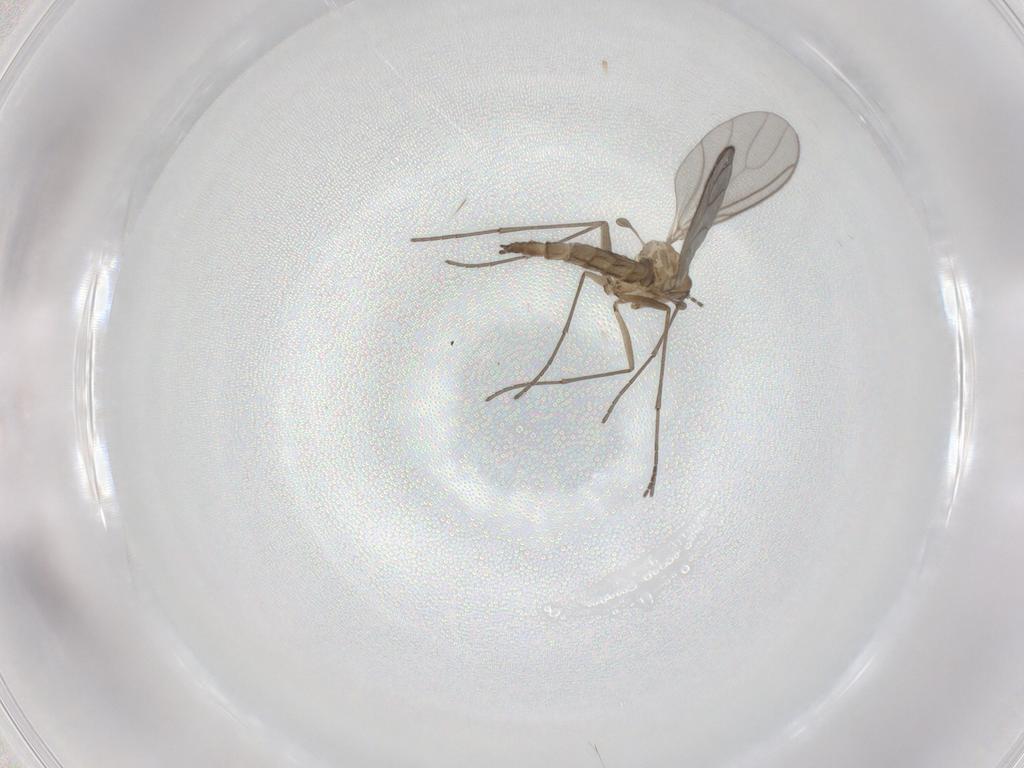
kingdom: Animalia
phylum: Arthropoda
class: Insecta
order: Diptera
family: Sciaridae
